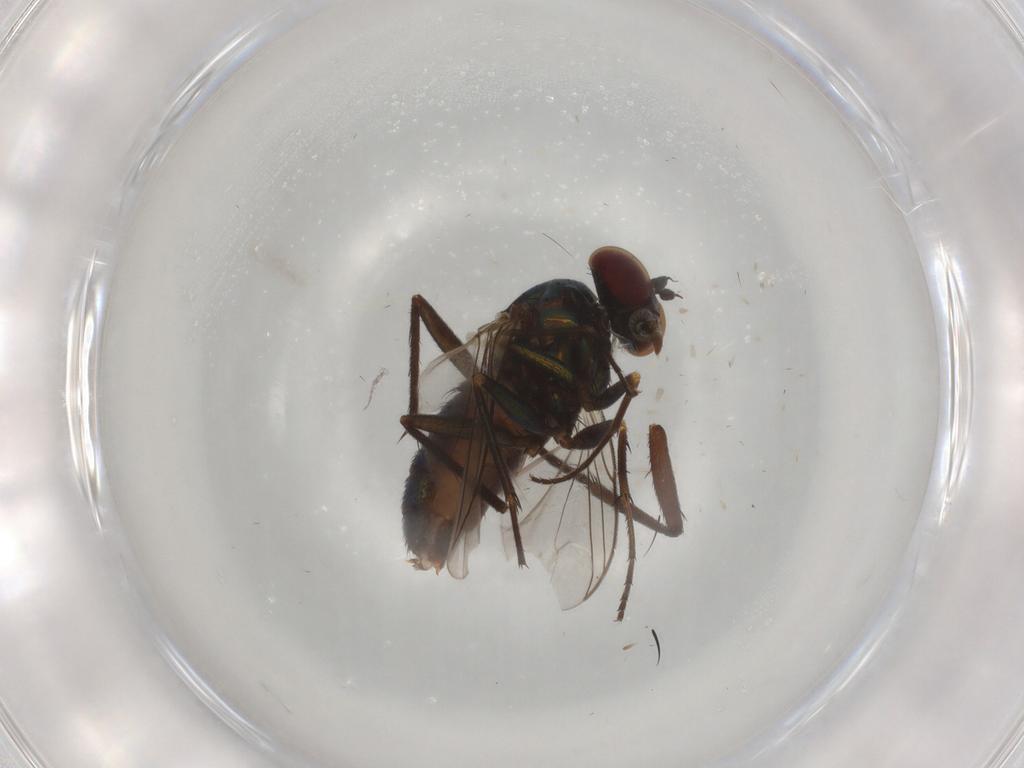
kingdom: Animalia
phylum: Arthropoda
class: Insecta
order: Diptera
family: Dolichopodidae
